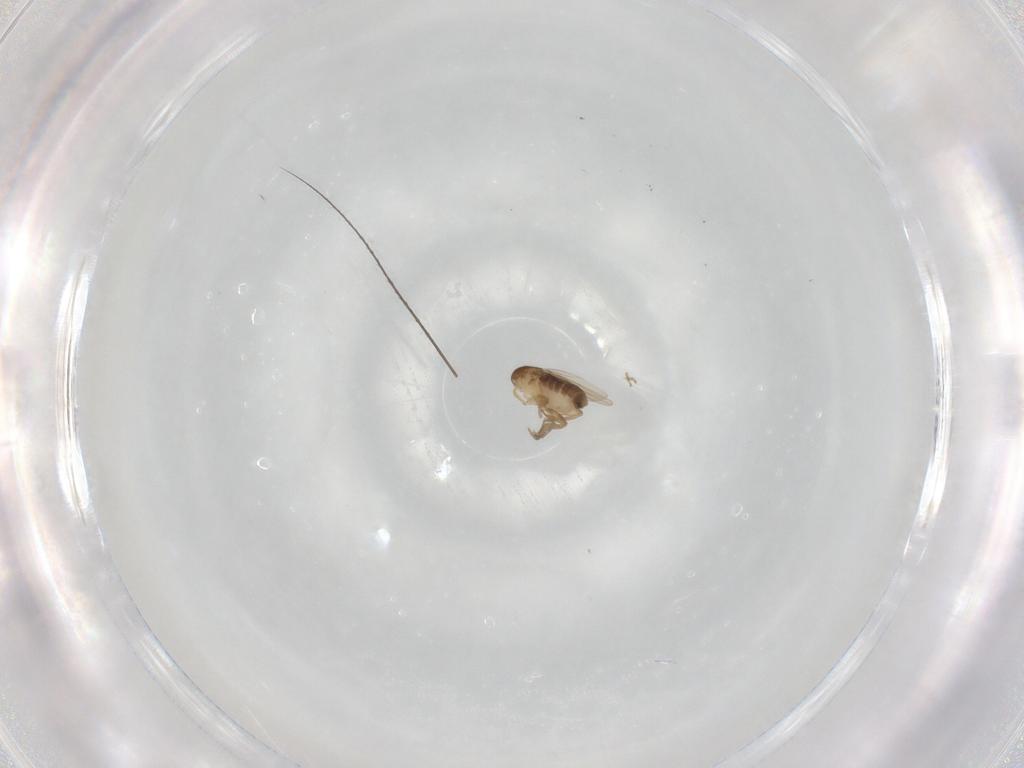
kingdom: Animalia
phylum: Arthropoda
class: Insecta
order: Diptera
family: Phoridae
